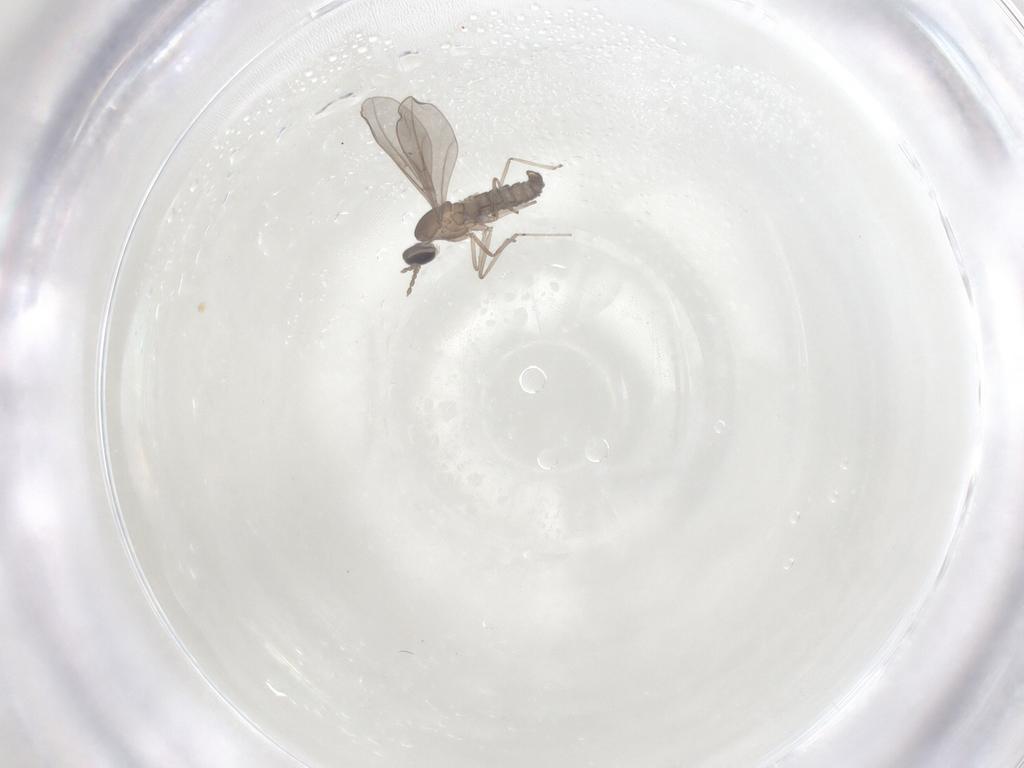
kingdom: Animalia
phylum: Arthropoda
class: Insecta
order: Diptera
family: Cecidomyiidae
